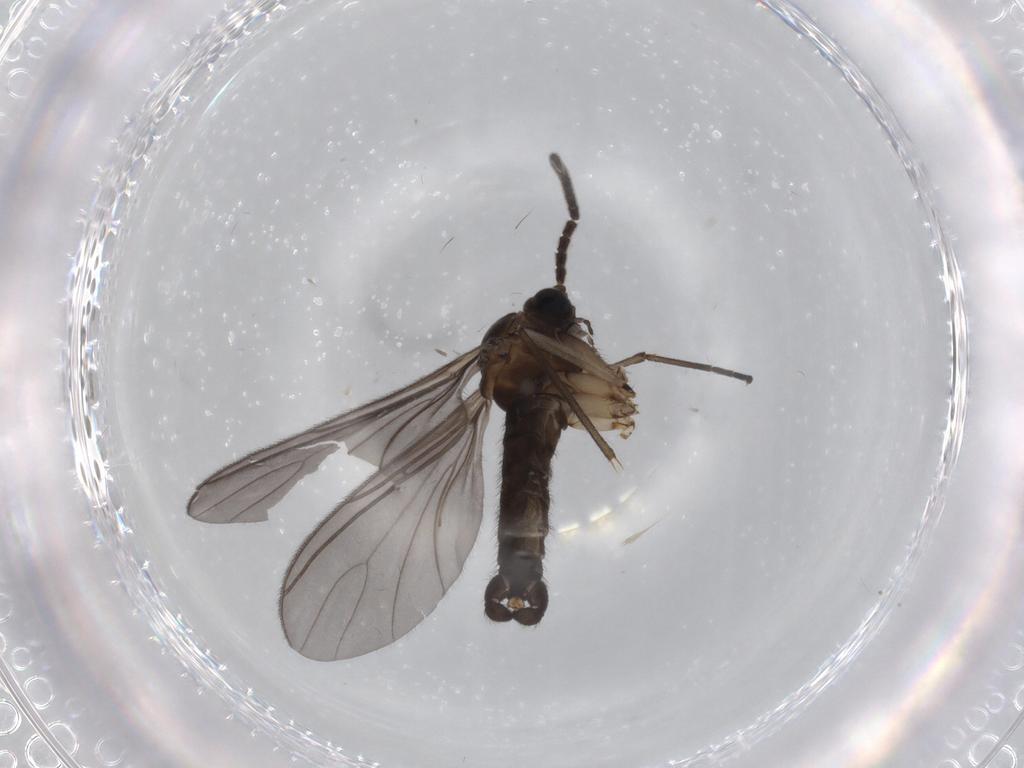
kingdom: Animalia
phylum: Arthropoda
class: Insecta
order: Diptera
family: Sciaridae
